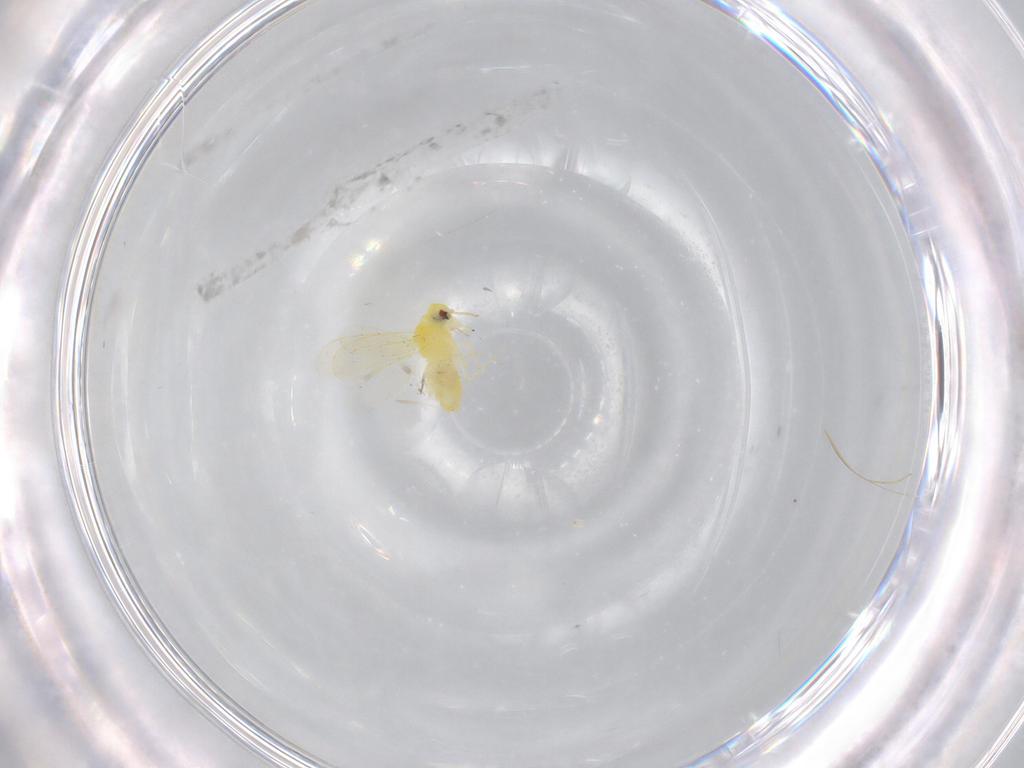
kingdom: Animalia
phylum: Arthropoda
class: Insecta
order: Hemiptera
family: Aleyrodidae
